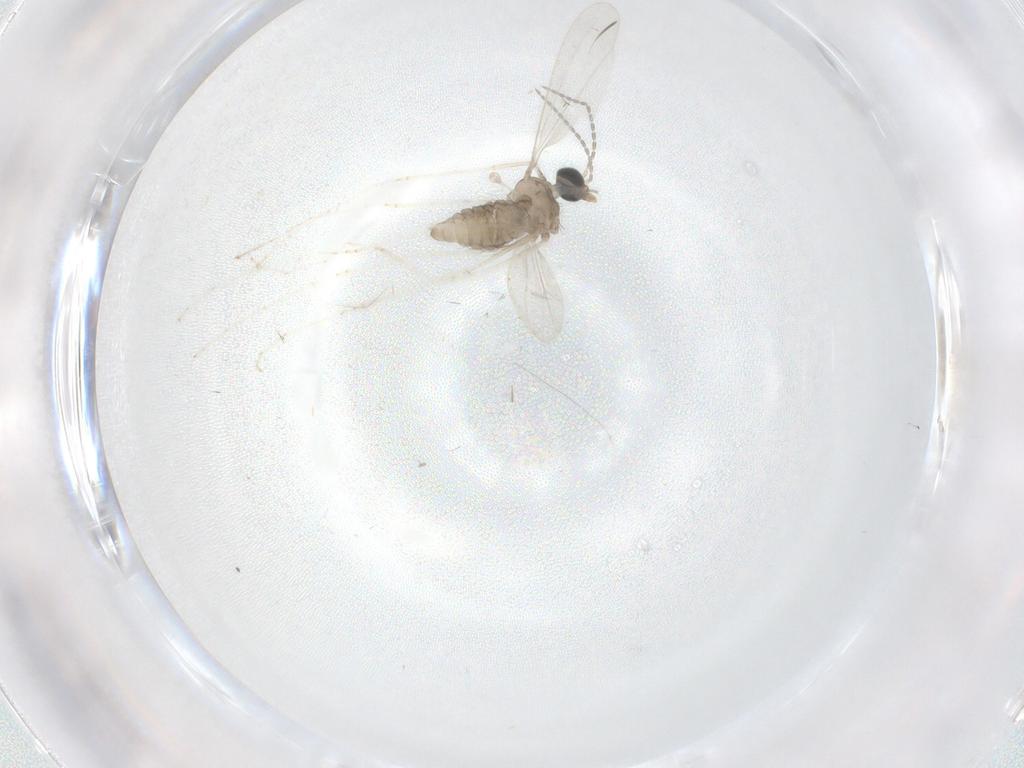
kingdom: Animalia
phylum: Arthropoda
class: Insecta
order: Diptera
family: Cecidomyiidae
